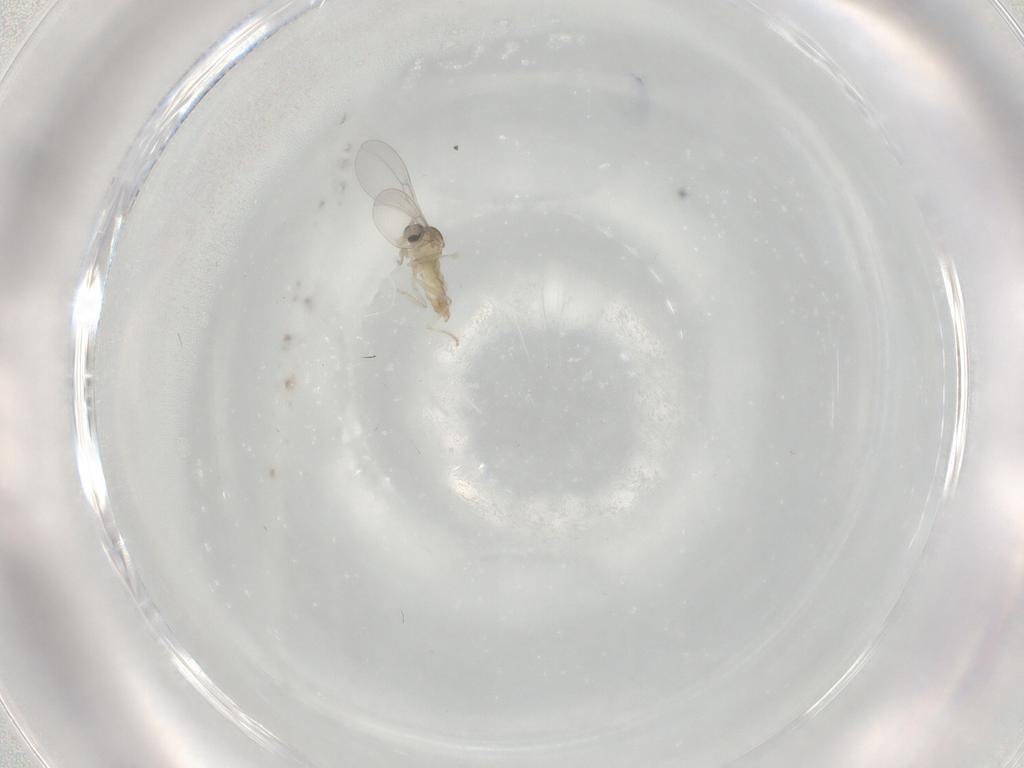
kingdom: Animalia
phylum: Arthropoda
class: Insecta
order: Diptera
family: Cecidomyiidae
